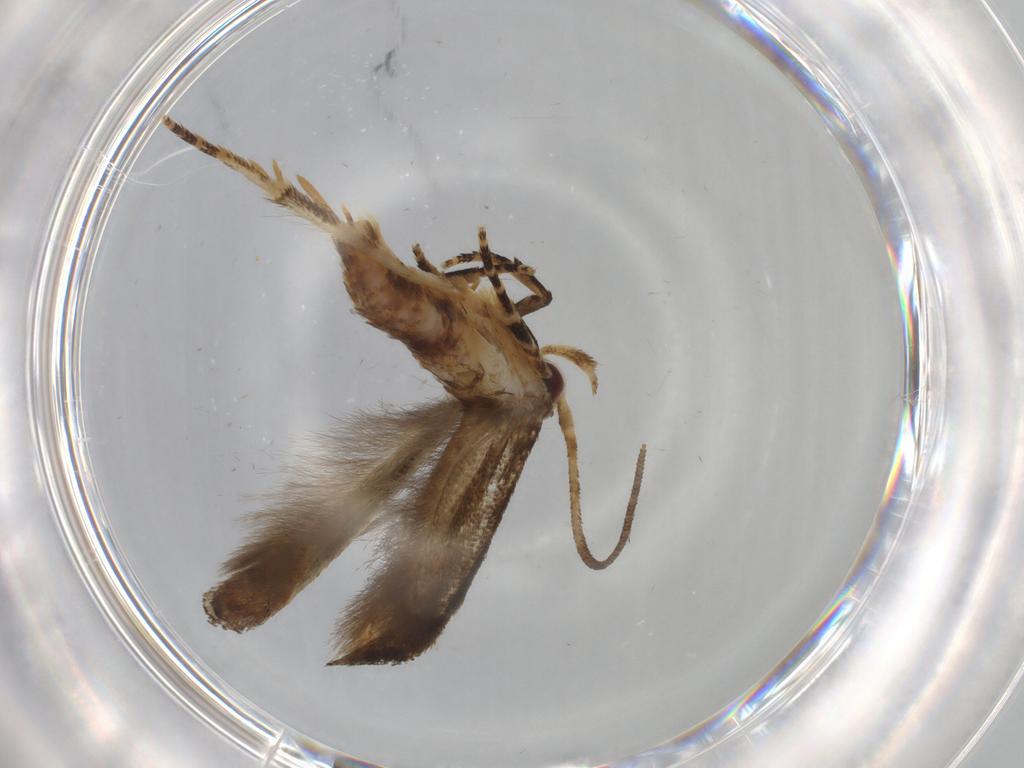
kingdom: Animalia
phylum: Arthropoda
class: Insecta
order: Lepidoptera
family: Momphidae
